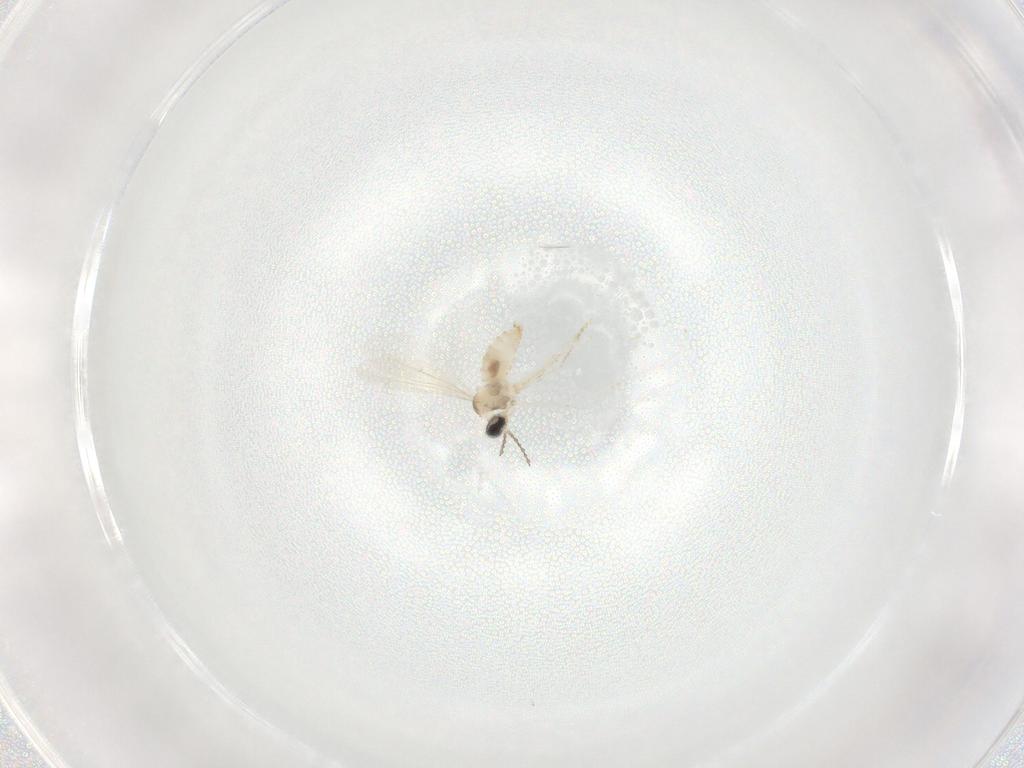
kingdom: Animalia
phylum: Arthropoda
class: Insecta
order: Diptera
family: Cecidomyiidae
